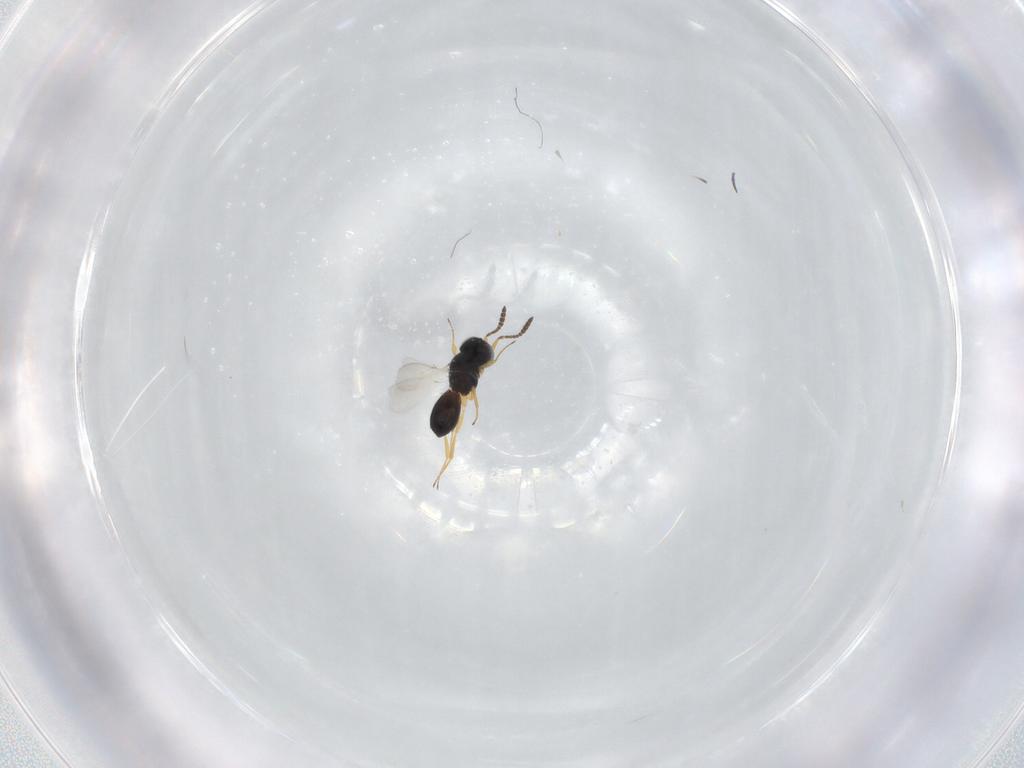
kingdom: Animalia
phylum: Arthropoda
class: Insecta
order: Hymenoptera
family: Scelionidae
